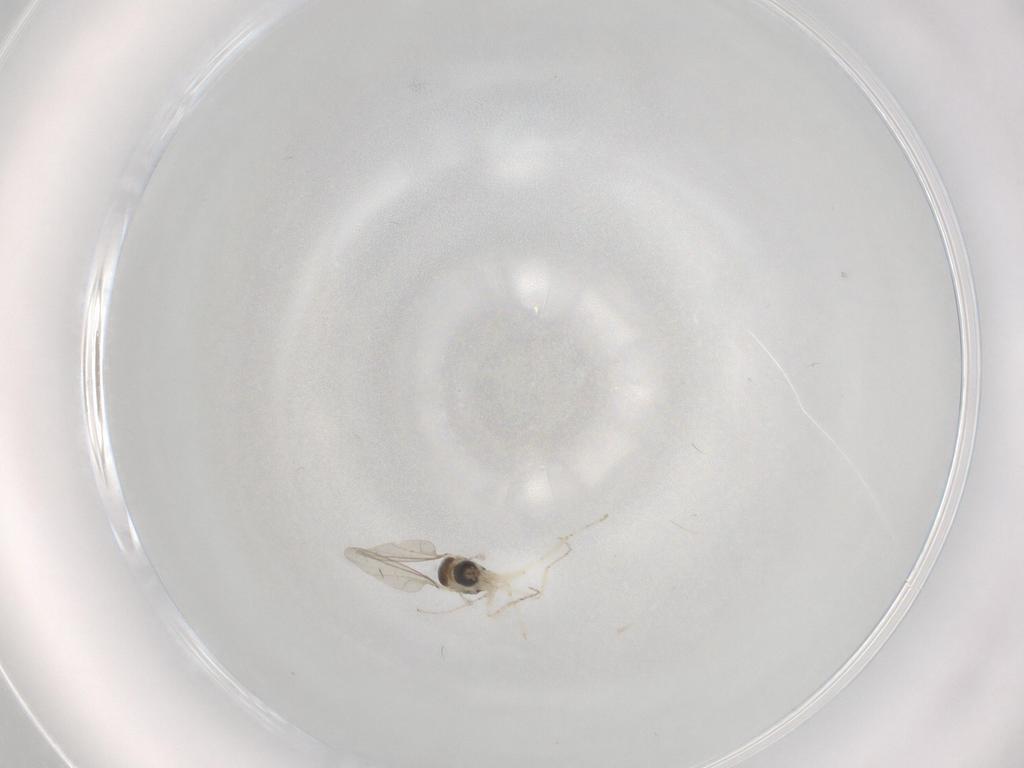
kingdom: Animalia
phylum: Arthropoda
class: Insecta
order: Diptera
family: Cecidomyiidae
